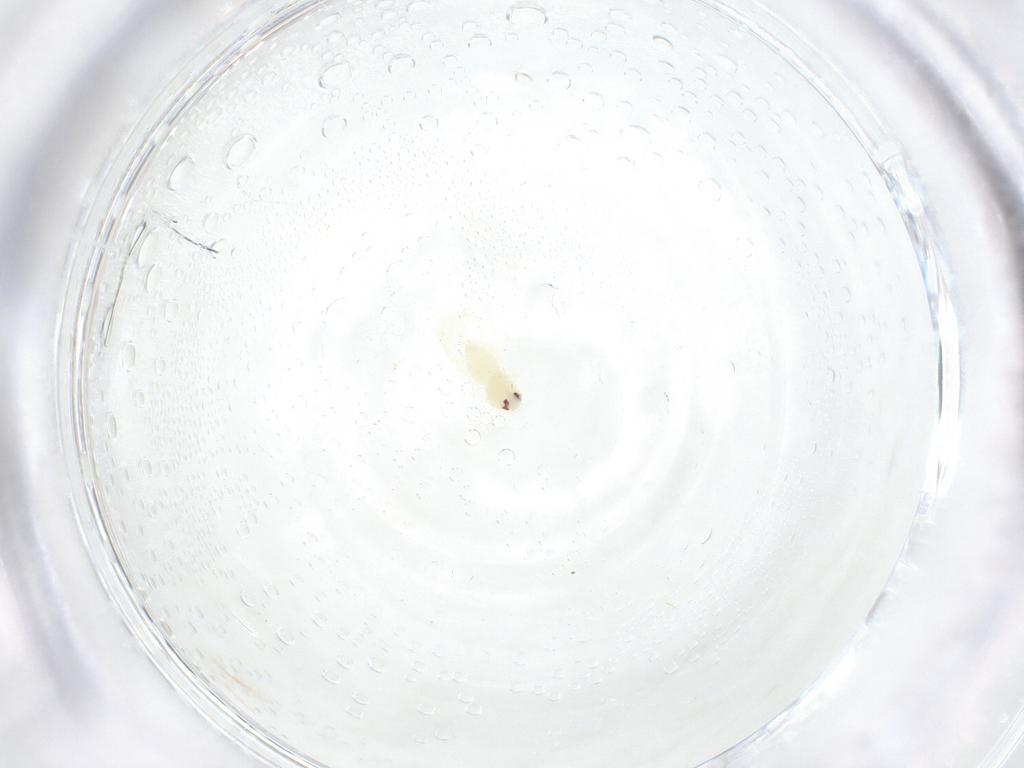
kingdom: Animalia
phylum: Arthropoda
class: Insecta
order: Hemiptera
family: Aleyrodidae
